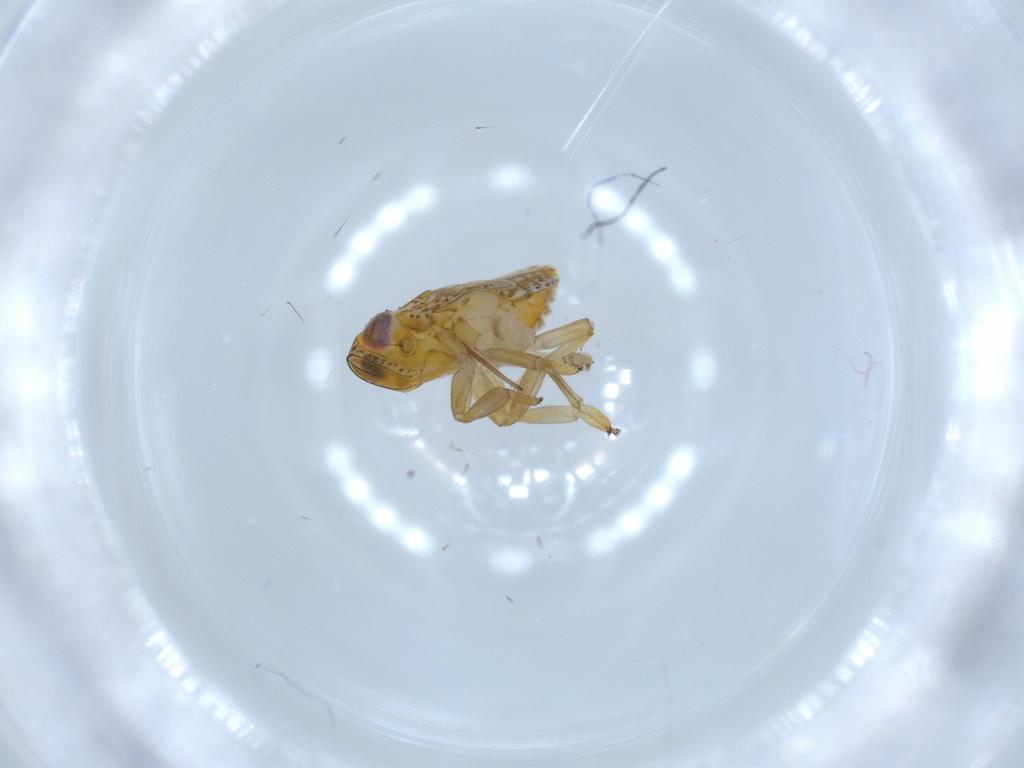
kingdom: Animalia
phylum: Arthropoda
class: Insecta
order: Hemiptera
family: Issidae
